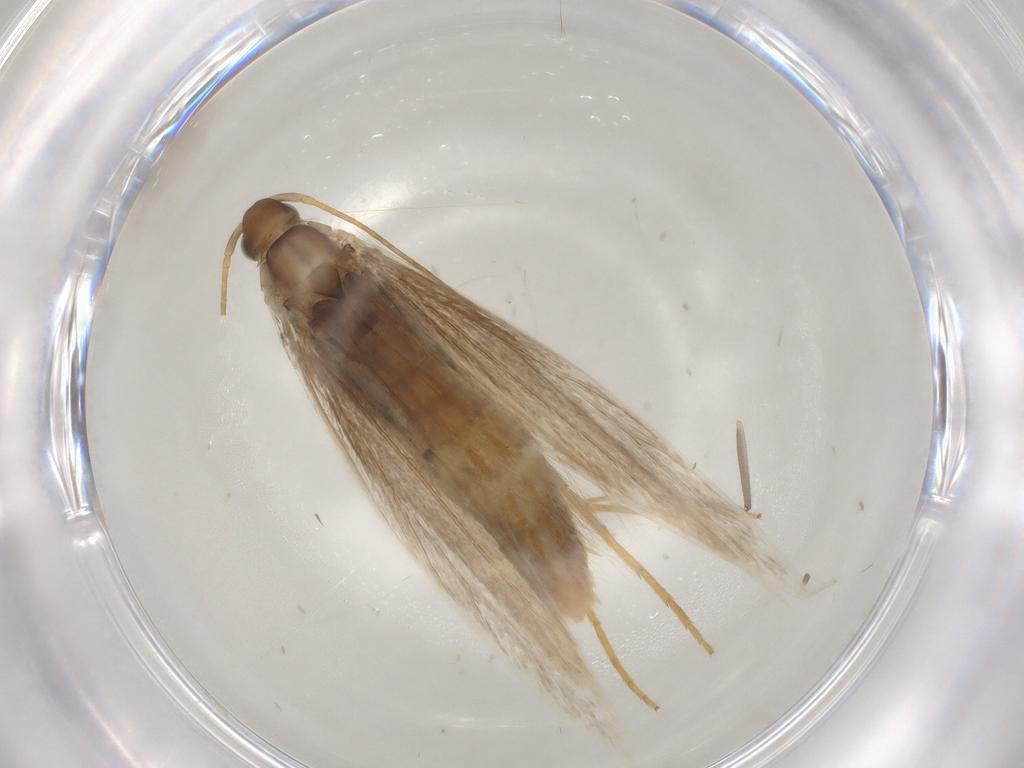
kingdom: Animalia
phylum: Arthropoda
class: Insecta
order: Lepidoptera
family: Coleophoridae
